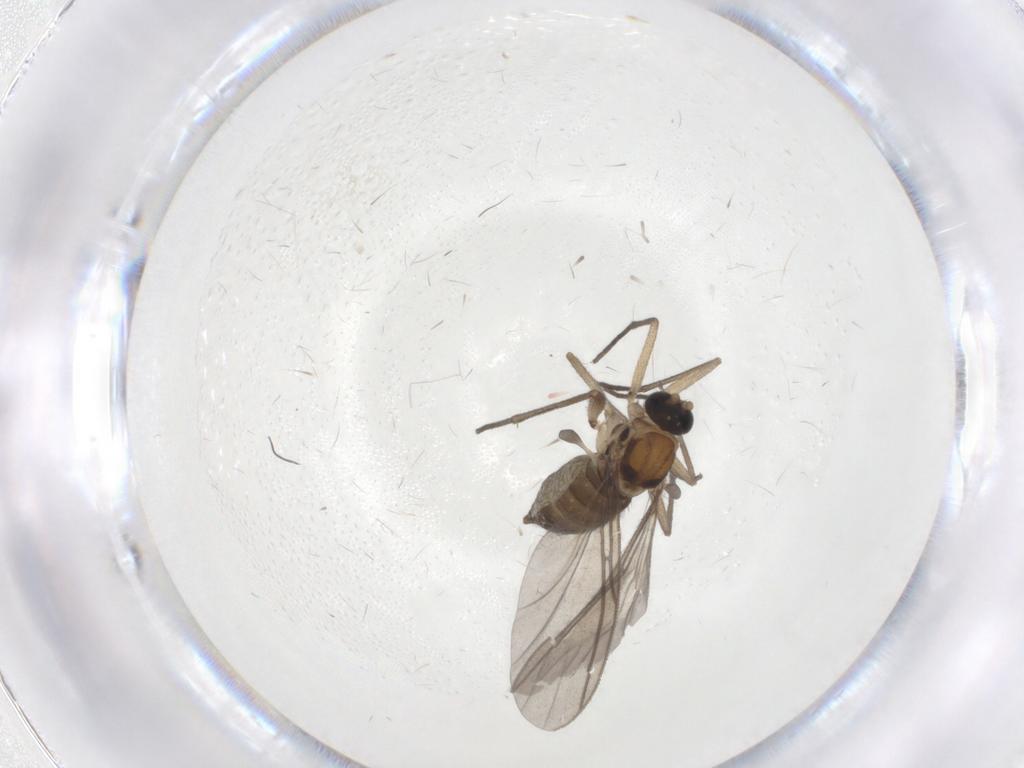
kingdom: Animalia
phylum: Arthropoda
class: Insecta
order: Diptera
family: Sciaridae
